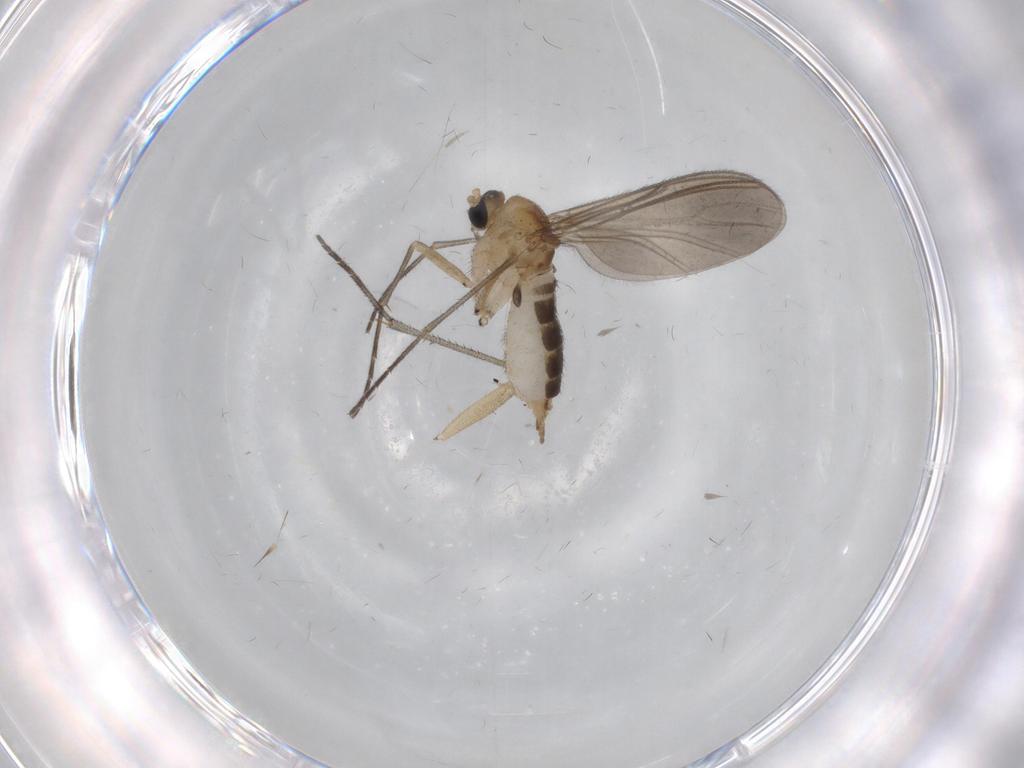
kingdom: Animalia
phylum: Arthropoda
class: Insecta
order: Diptera
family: Sciaridae
